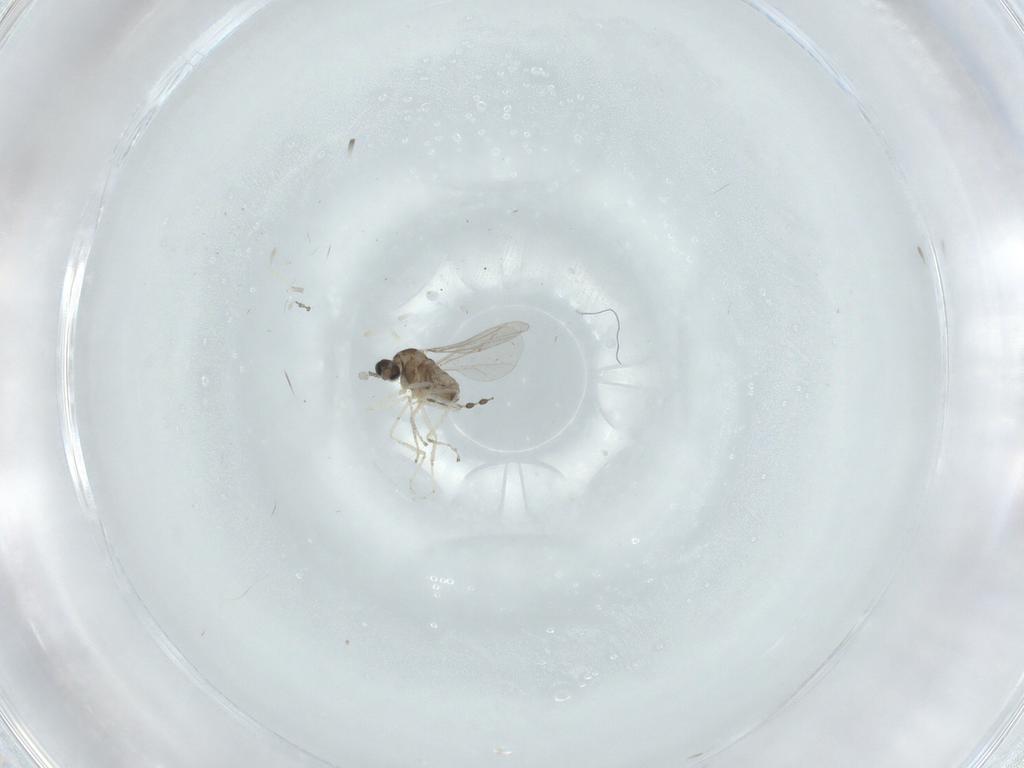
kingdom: Animalia
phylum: Arthropoda
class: Insecta
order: Diptera
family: Cecidomyiidae
